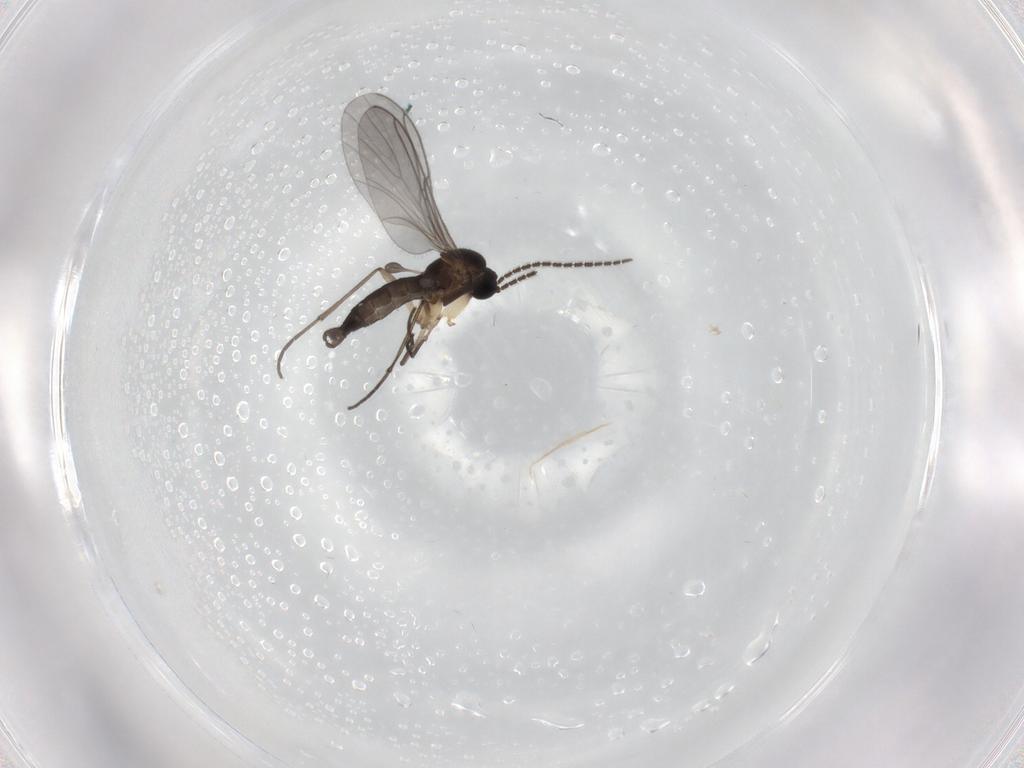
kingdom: Animalia
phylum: Arthropoda
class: Insecta
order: Diptera
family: Sciaridae
